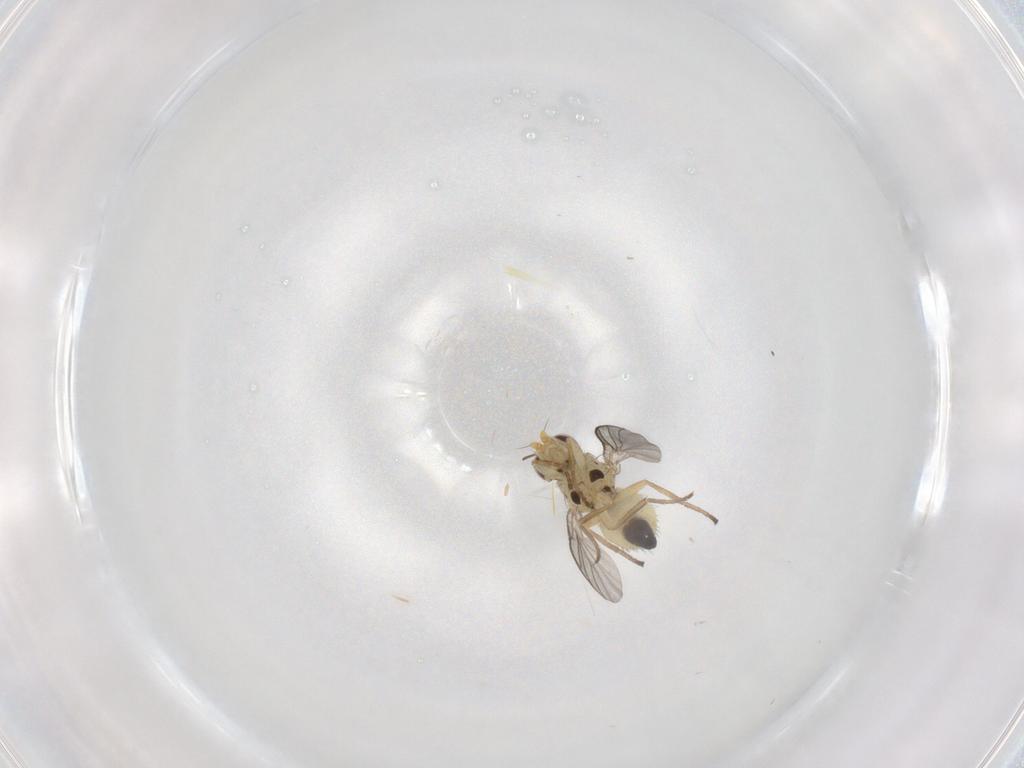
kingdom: Animalia
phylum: Arthropoda
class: Insecta
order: Diptera
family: Agromyzidae
